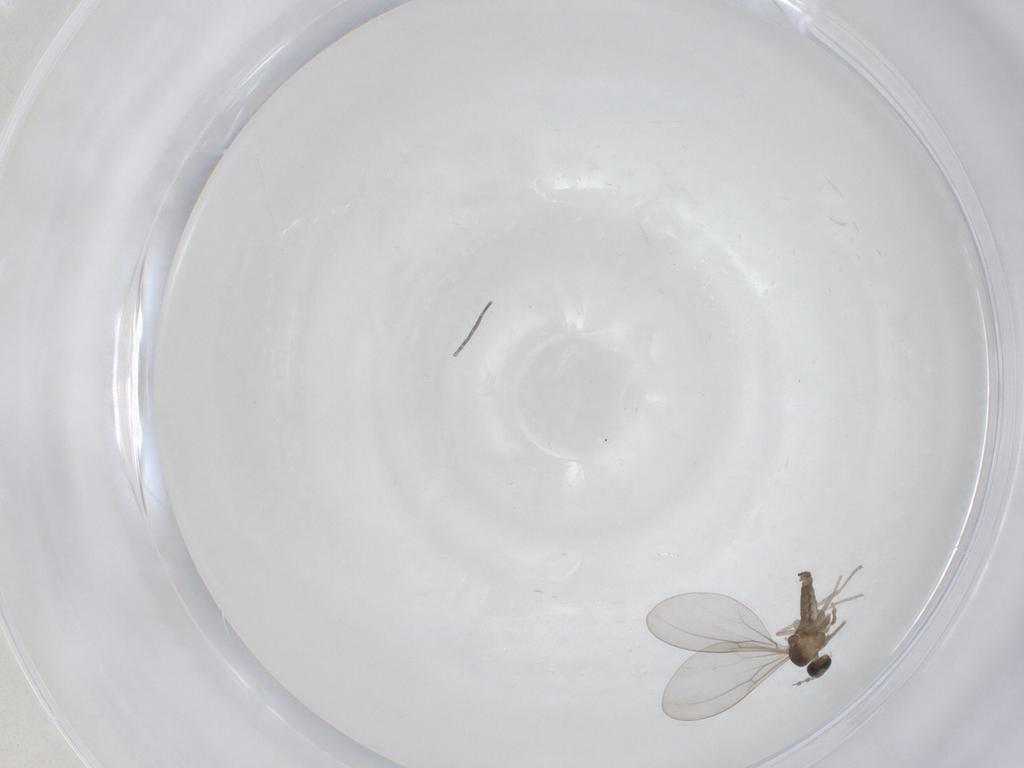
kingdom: Animalia
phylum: Arthropoda
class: Insecta
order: Diptera
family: Cecidomyiidae
